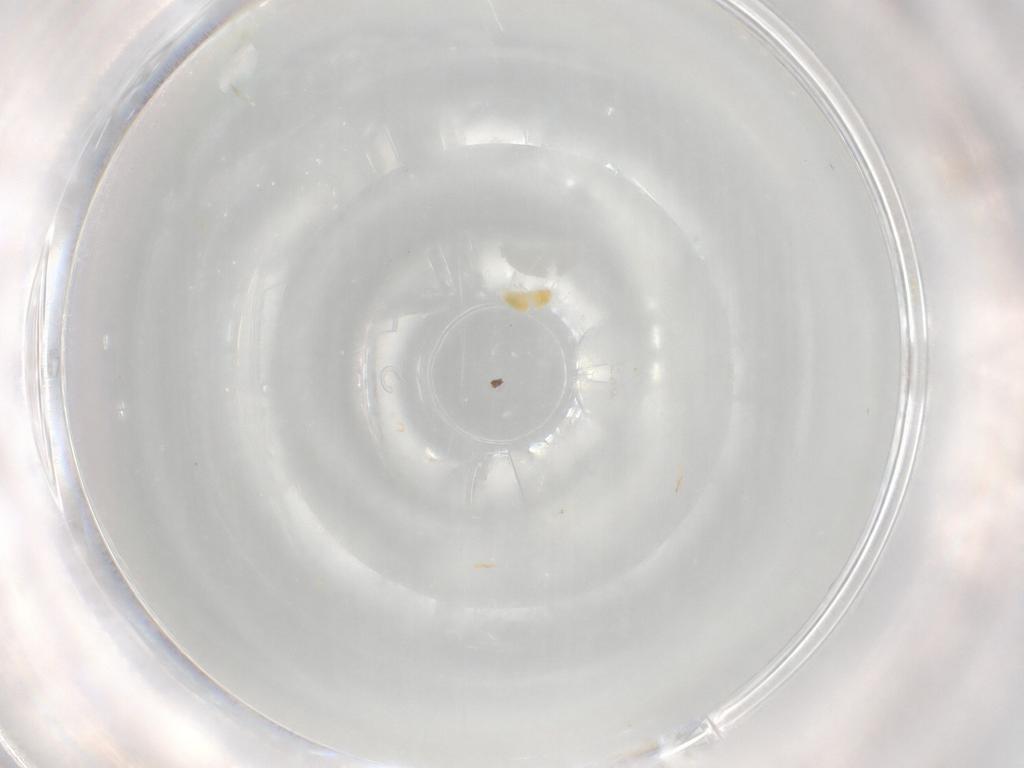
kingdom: Animalia
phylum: Arthropoda
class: Arachnida
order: Trombidiformes
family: Eupodidae
